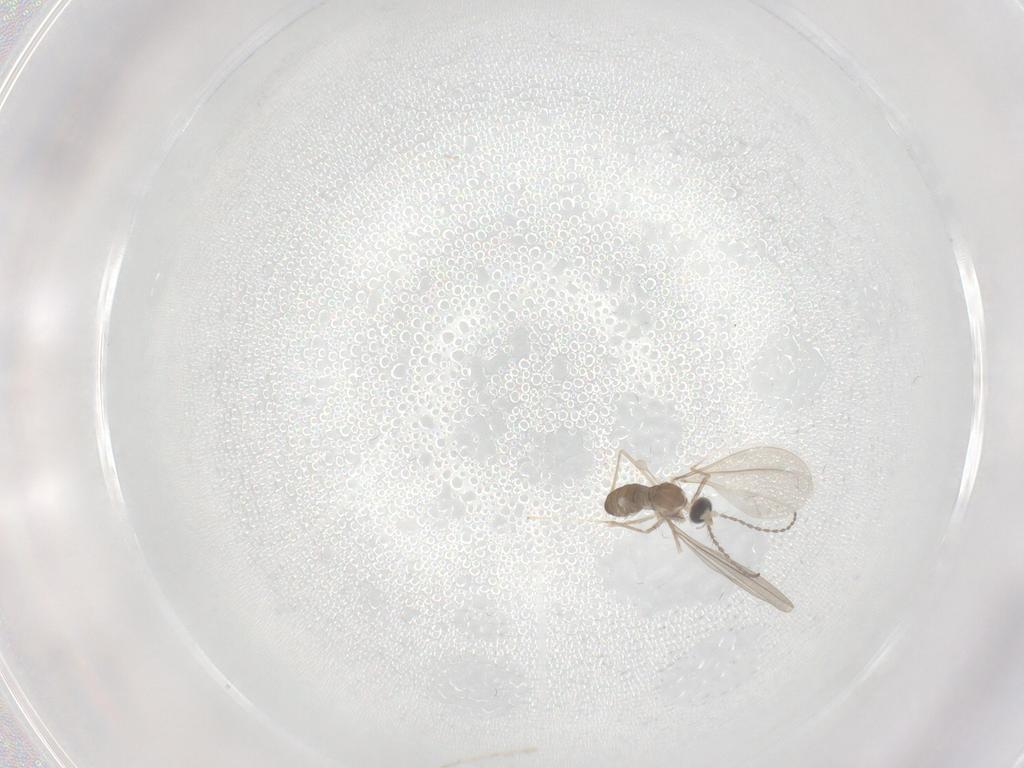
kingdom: Animalia
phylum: Arthropoda
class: Insecta
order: Diptera
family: Cecidomyiidae
